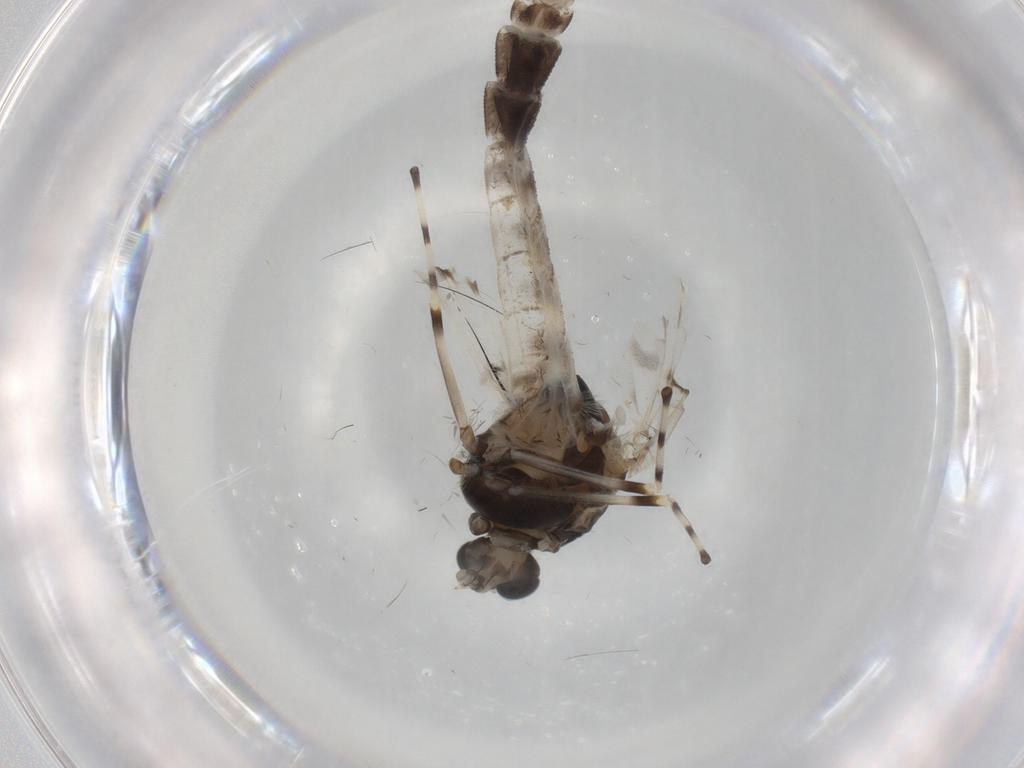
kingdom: Animalia
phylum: Arthropoda
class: Insecta
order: Diptera
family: Chironomidae
